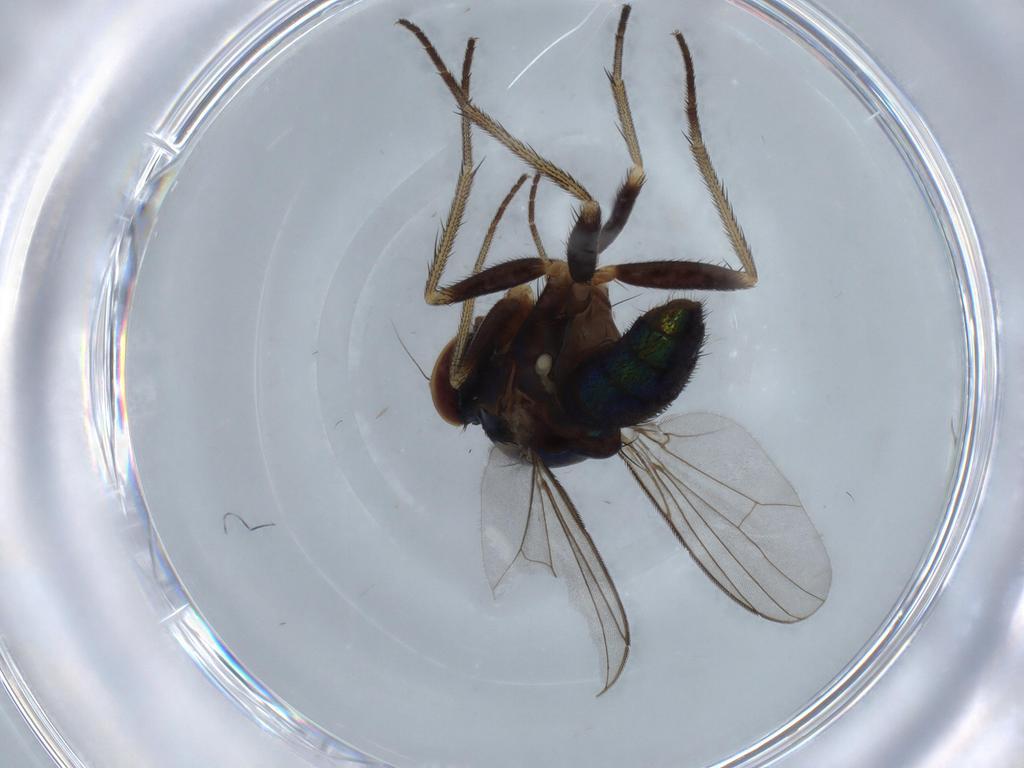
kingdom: Animalia
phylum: Arthropoda
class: Insecta
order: Diptera
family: Dolichopodidae
